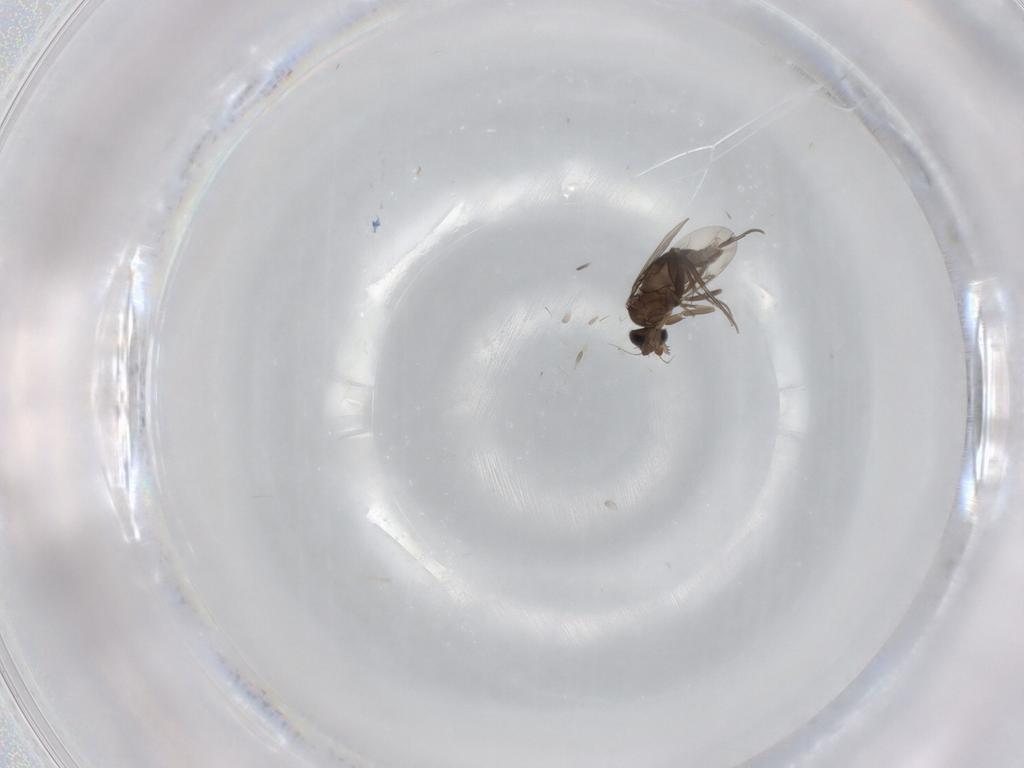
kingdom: Animalia
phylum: Arthropoda
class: Insecta
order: Diptera
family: Phoridae
